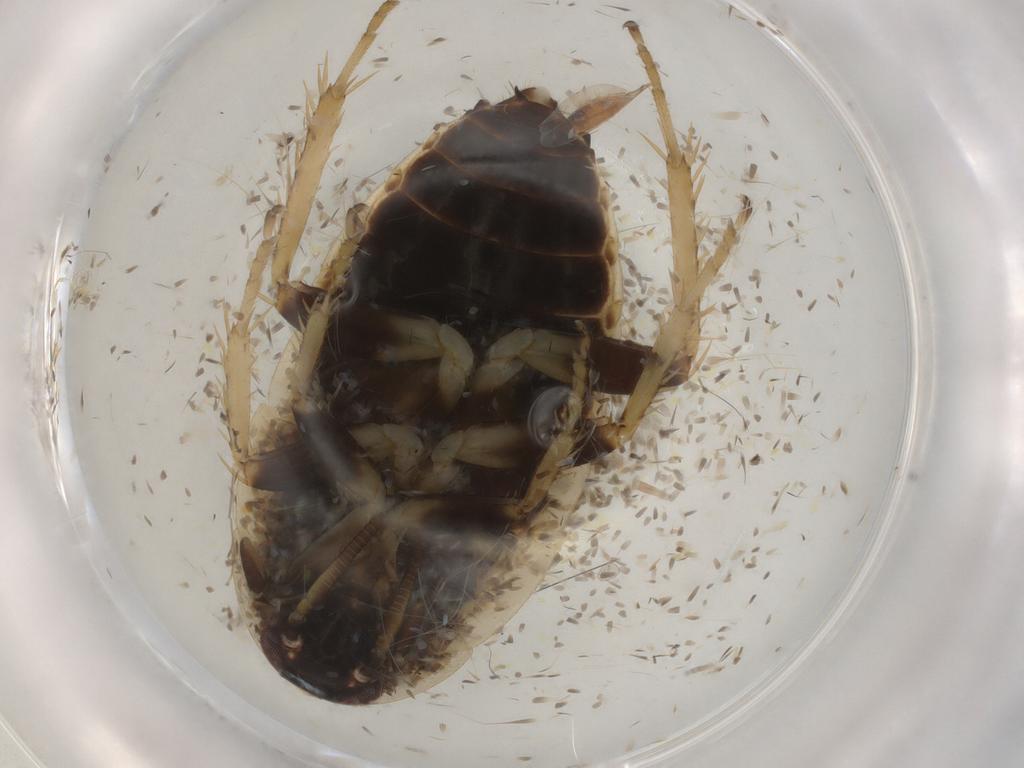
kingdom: Animalia
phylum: Arthropoda
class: Insecta
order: Blattodea
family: Ectobiidae
